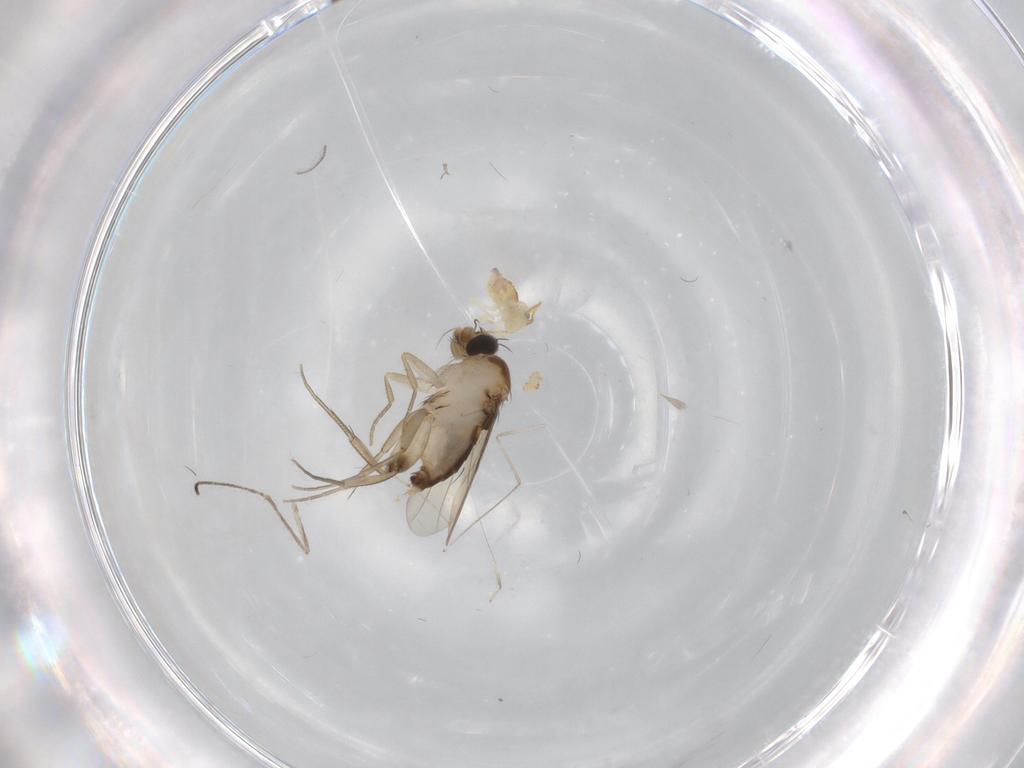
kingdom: Animalia
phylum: Arthropoda
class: Insecta
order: Diptera
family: Phoridae
